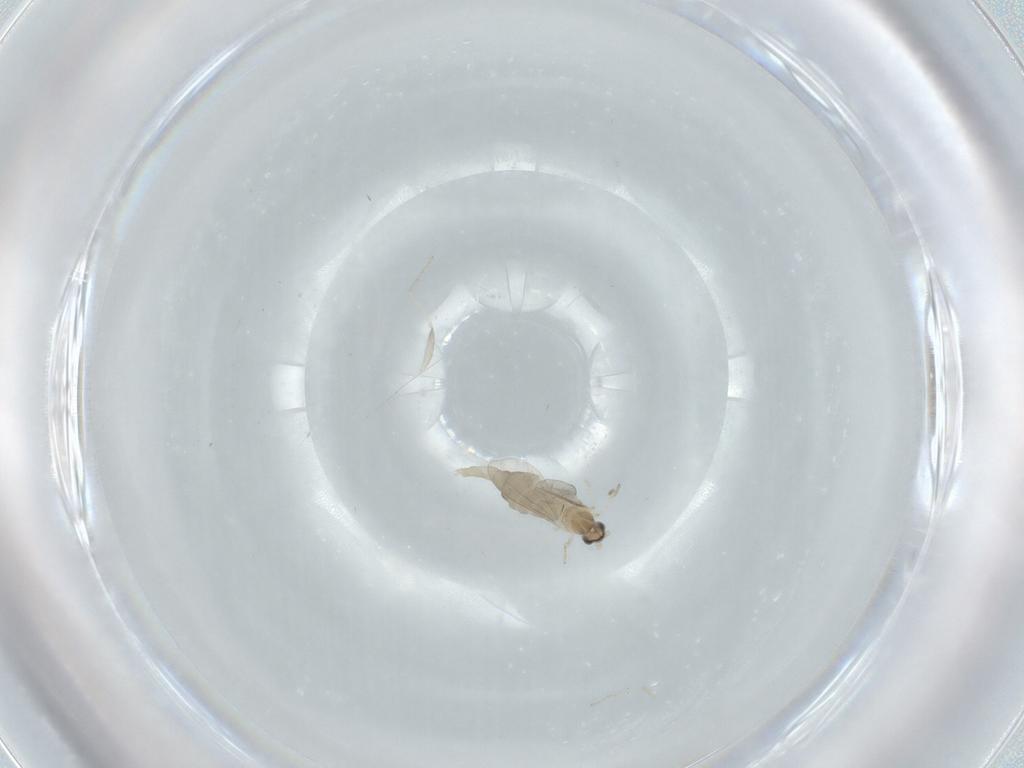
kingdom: Animalia
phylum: Arthropoda
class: Insecta
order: Diptera
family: Cecidomyiidae
